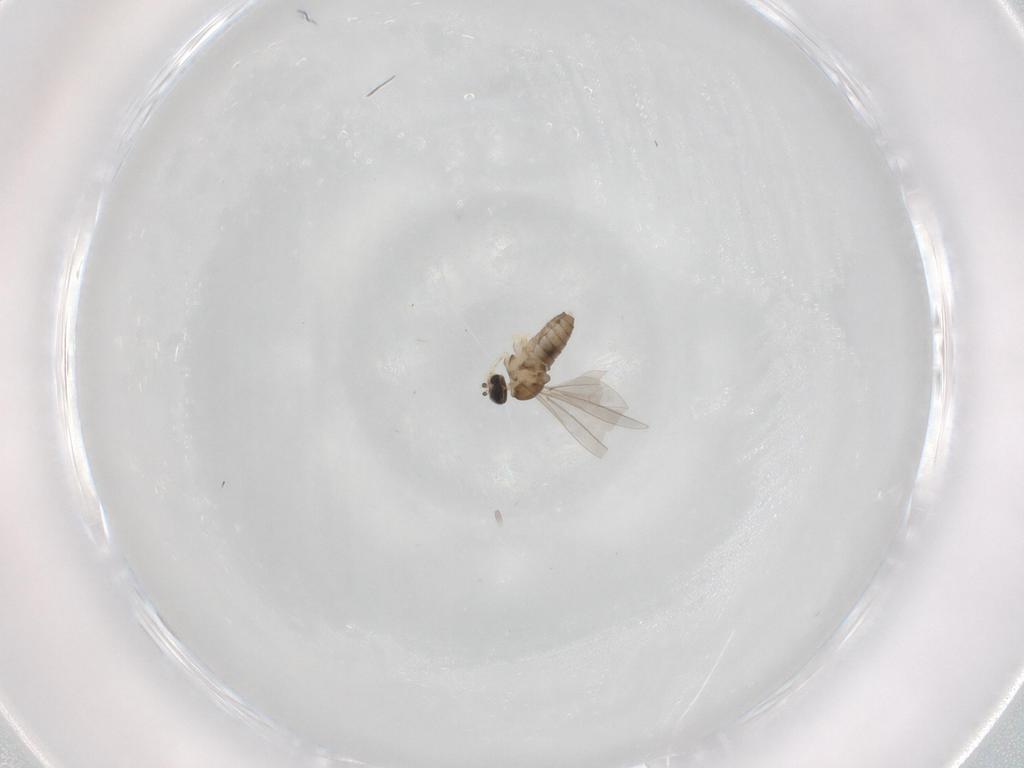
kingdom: Animalia
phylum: Arthropoda
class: Insecta
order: Diptera
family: Cecidomyiidae
